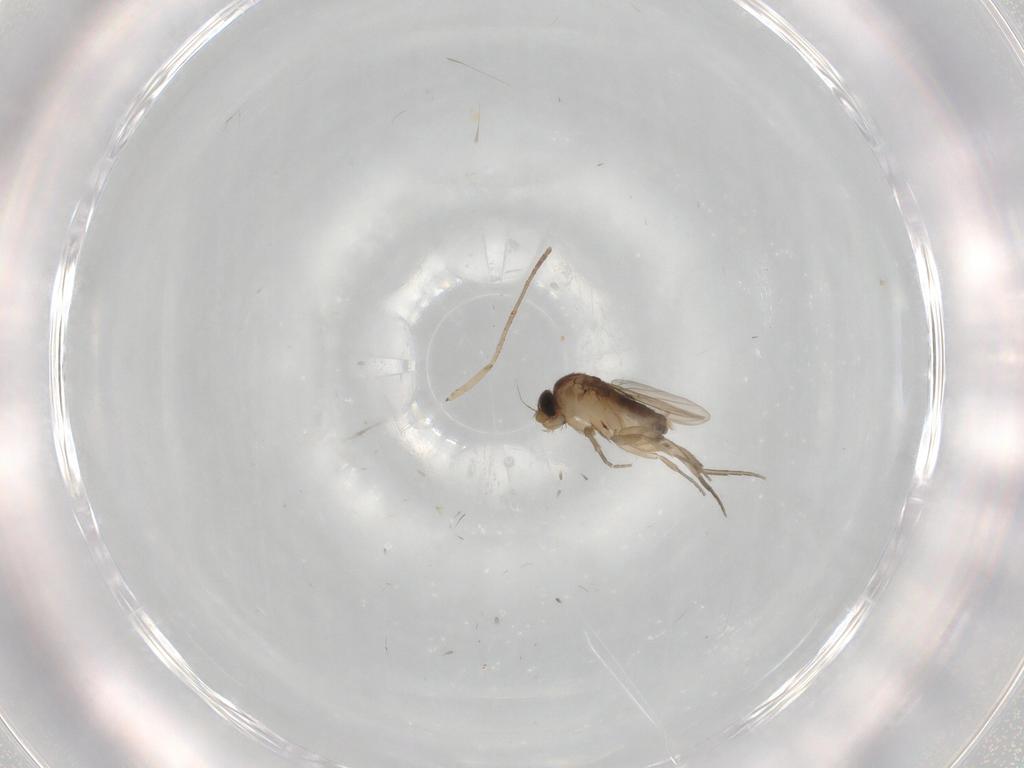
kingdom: Animalia
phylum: Arthropoda
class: Insecta
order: Diptera
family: Phoridae
